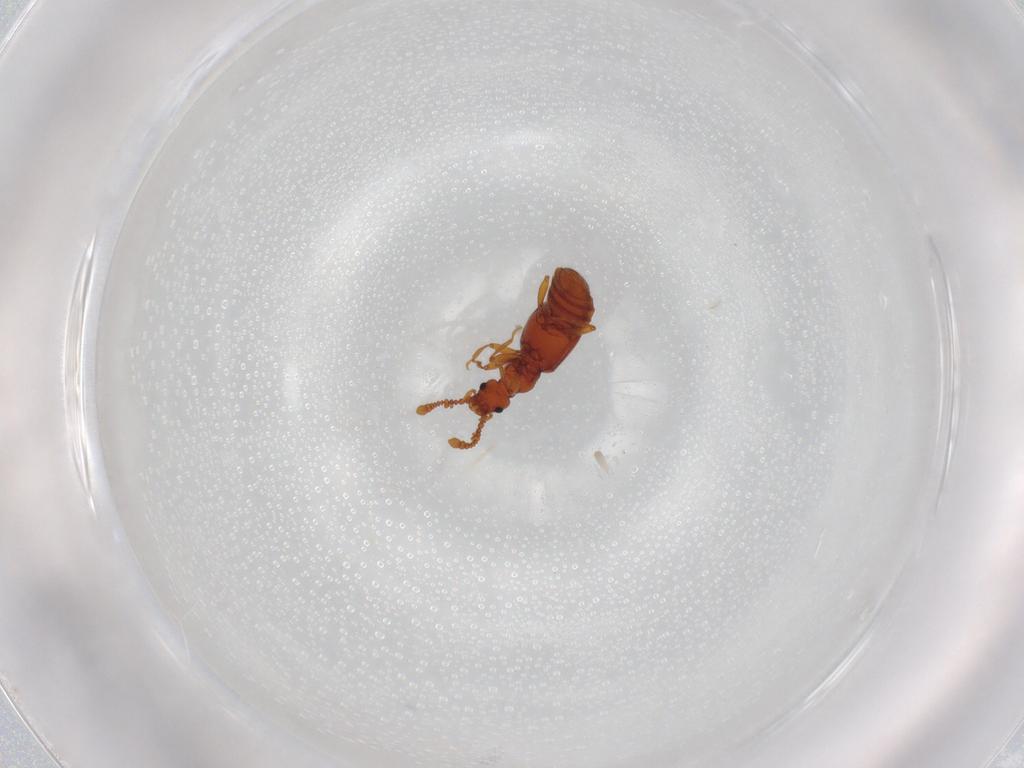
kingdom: Animalia
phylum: Arthropoda
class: Insecta
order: Coleoptera
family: Staphylinidae
